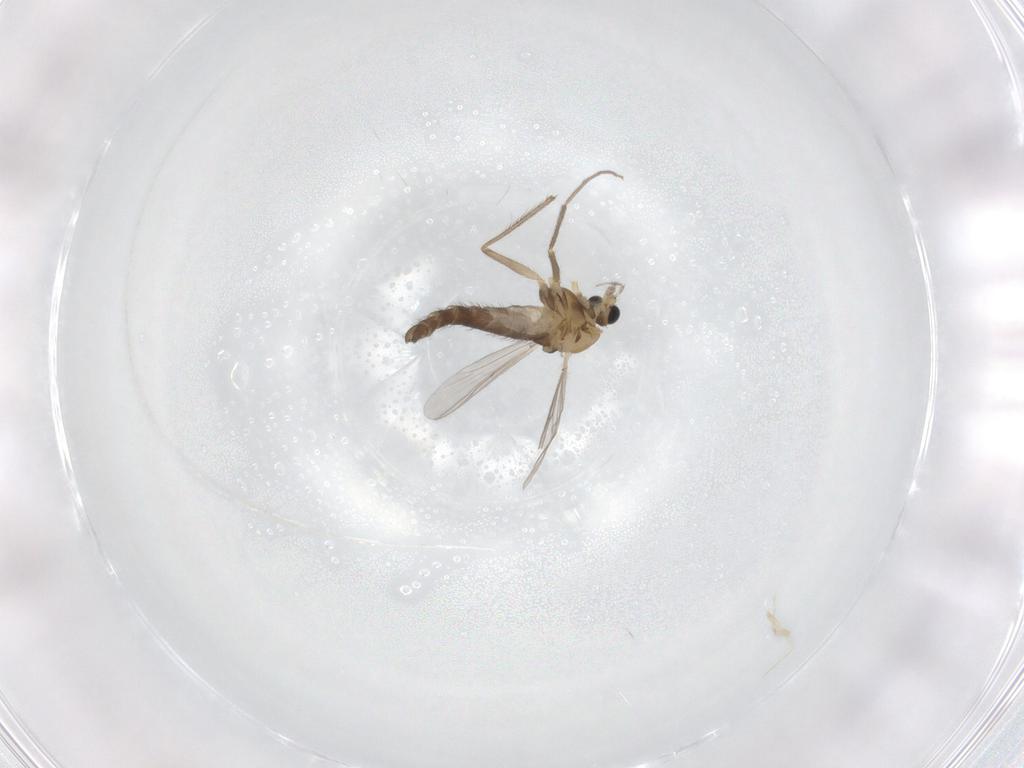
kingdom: Animalia
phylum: Arthropoda
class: Insecta
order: Diptera
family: Chironomidae
